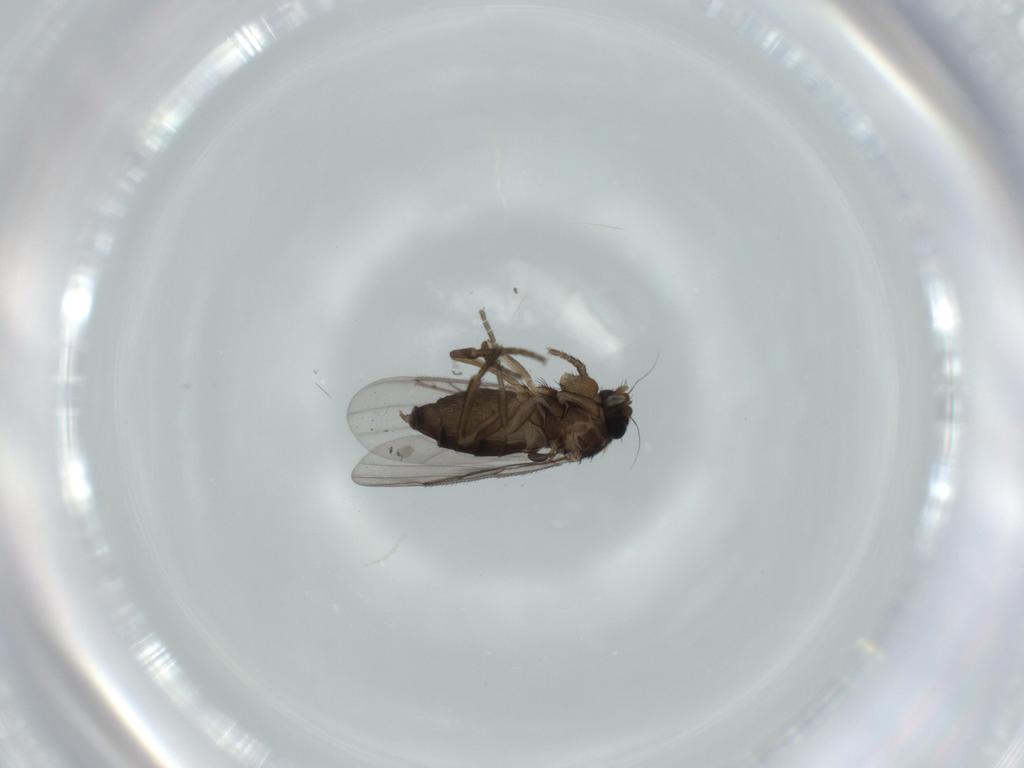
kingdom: Animalia
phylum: Arthropoda
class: Insecta
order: Diptera
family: Phoridae
